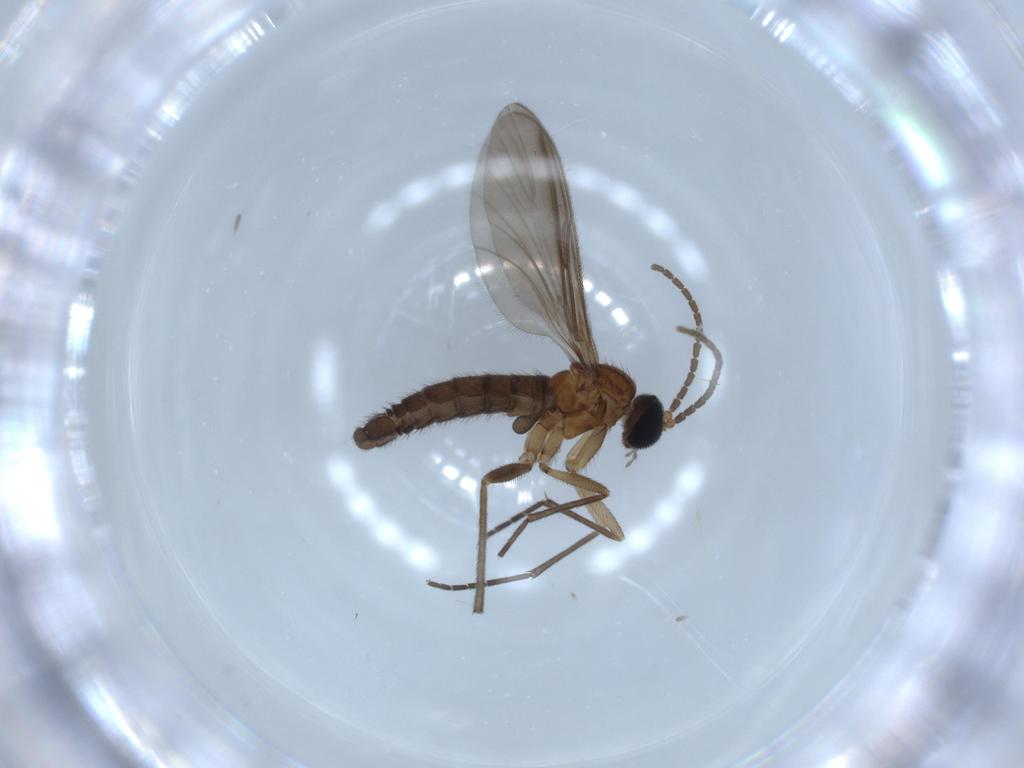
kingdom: Animalia
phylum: Arthropoda
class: Insecta
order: Diptera
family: Sciaridae
